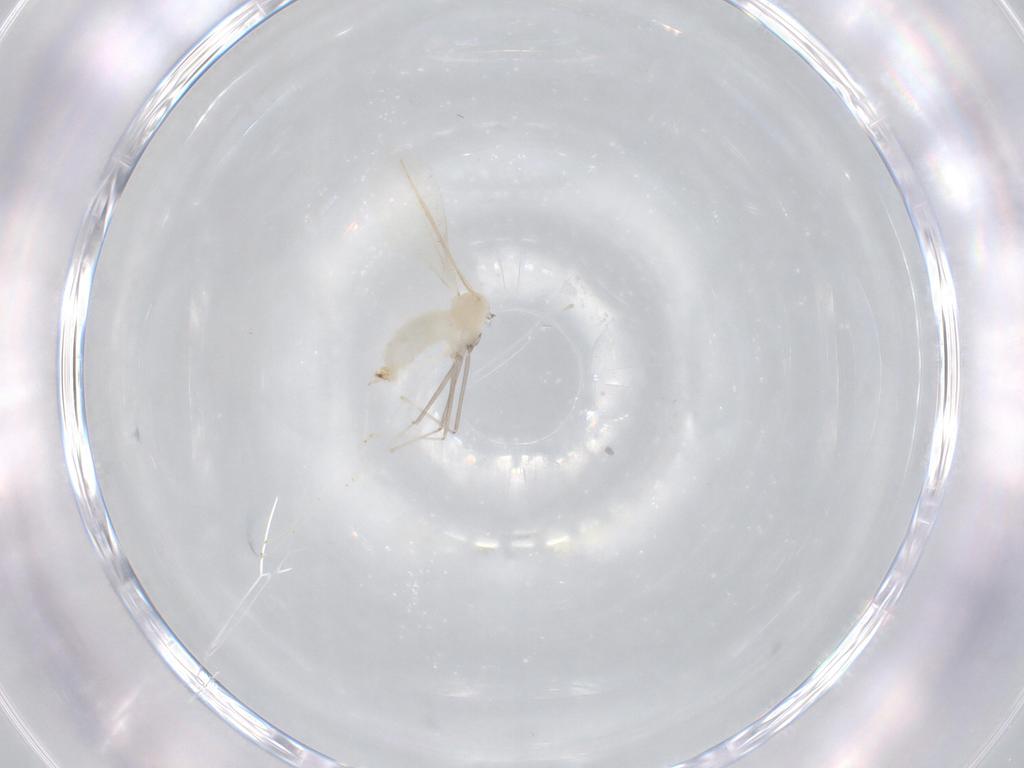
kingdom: Animalia
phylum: Arthropoda
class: Insecta
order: Diptera
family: Cecidomyiidae
